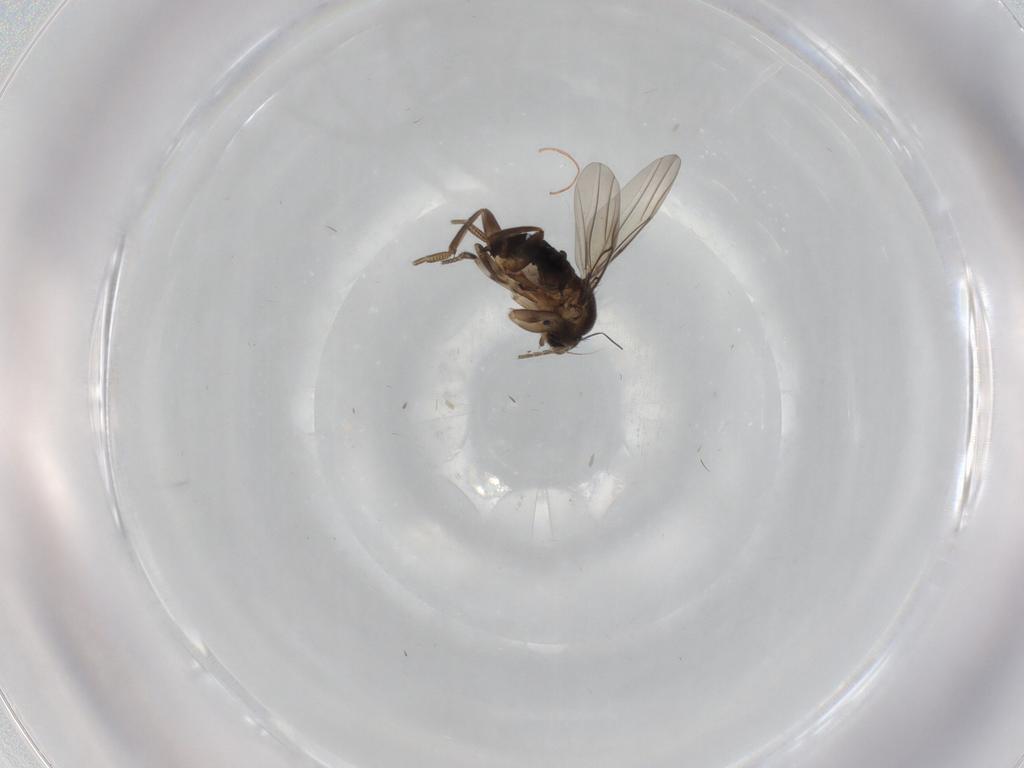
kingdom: Animalia
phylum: Arthropoda
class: Insecta
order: Diptera
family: Phoridae
